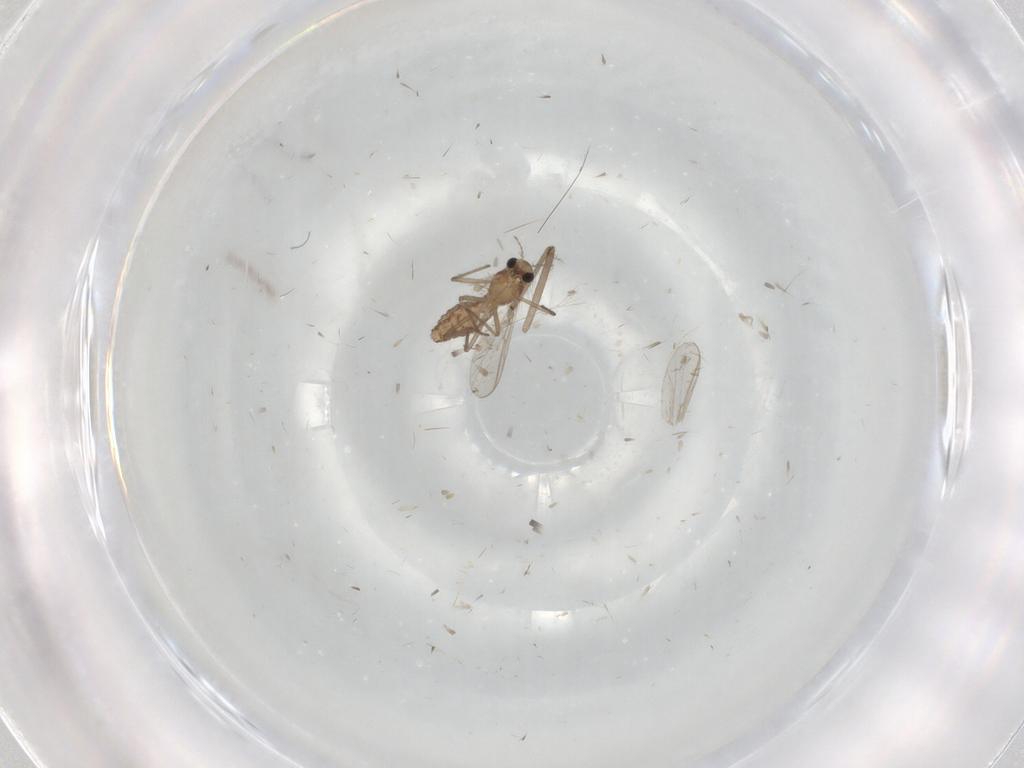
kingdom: Animalia
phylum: Arthropoda
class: Insecta
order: Diptera
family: Chironomidae
